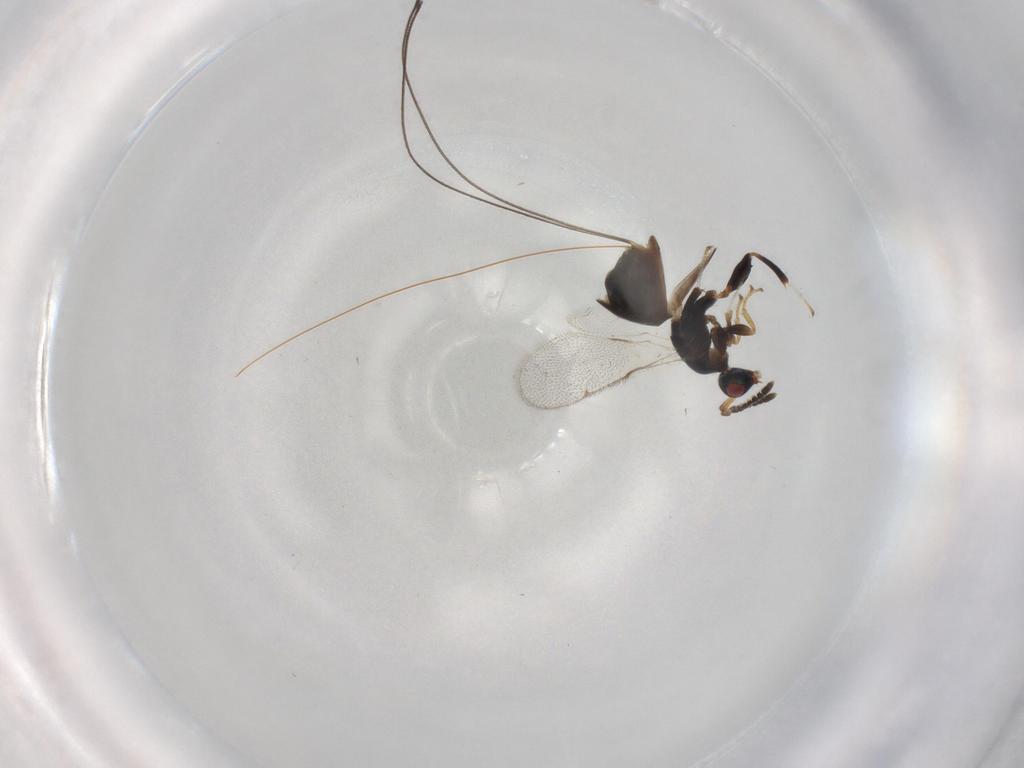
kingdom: Animalia
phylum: Arthropoda
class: Insecta
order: Hymenoptera
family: Torymidae
